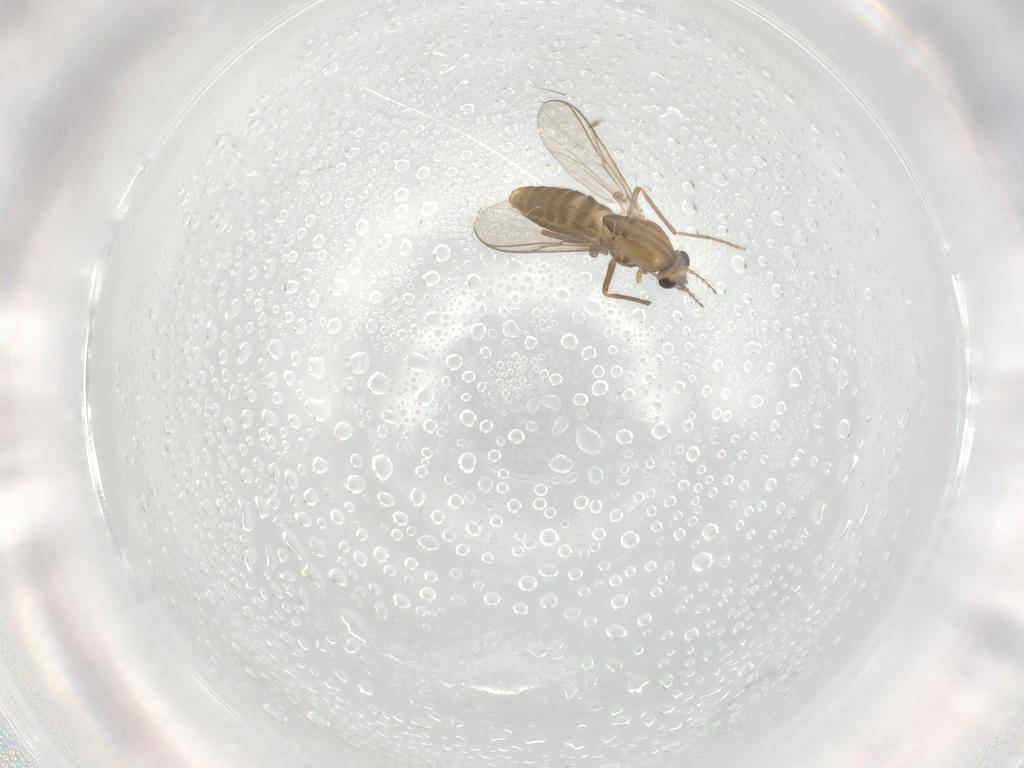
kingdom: Animalia
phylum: Arthropoda
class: Insecta
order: Diptera
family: Chironomidae
